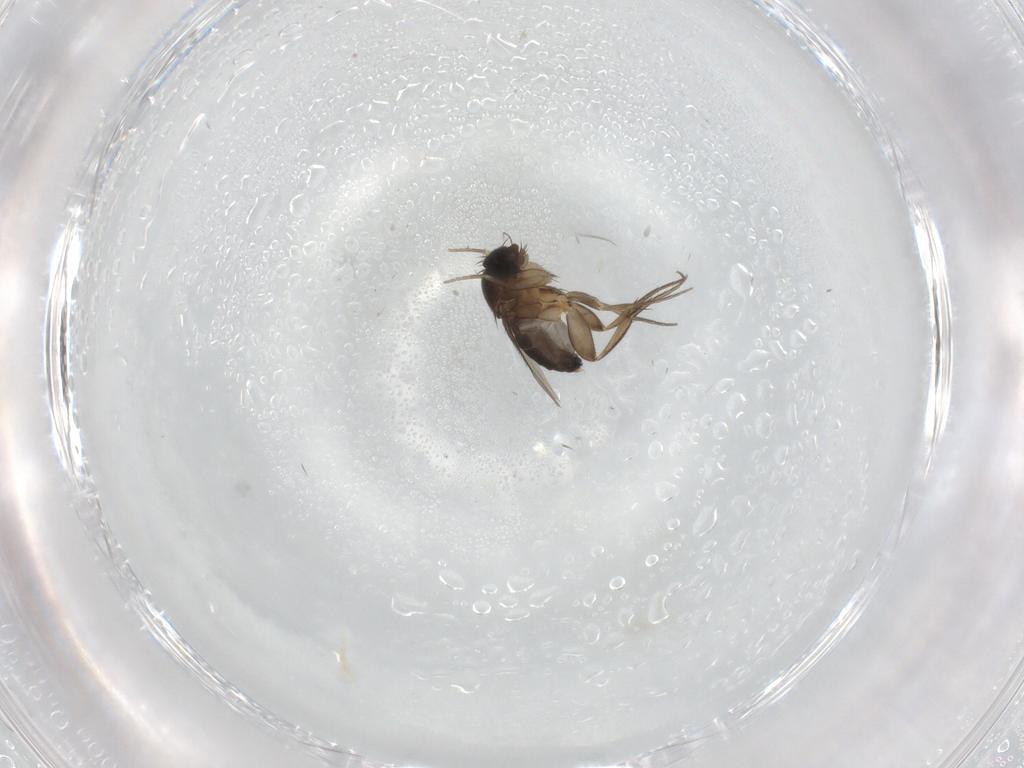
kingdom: Animalia
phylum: Arthropoda
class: Insecta
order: Diptera
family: Phoridae
